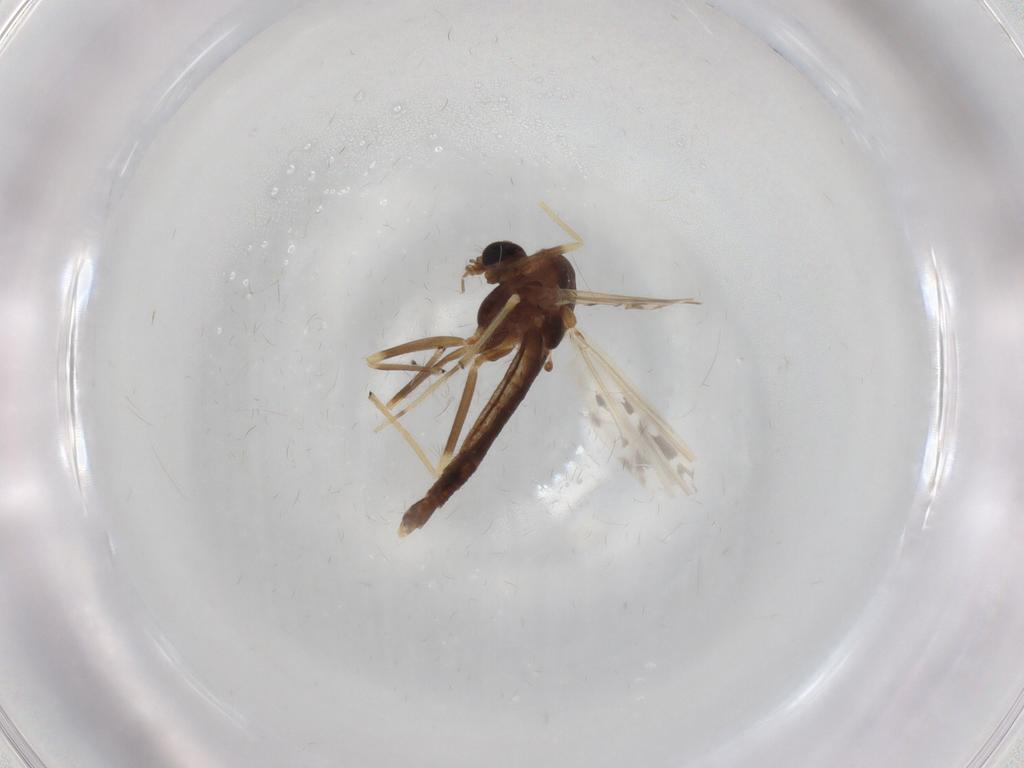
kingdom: Animalia
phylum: Arthropoda
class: Insecta
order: Diptera
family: Chironomidae
